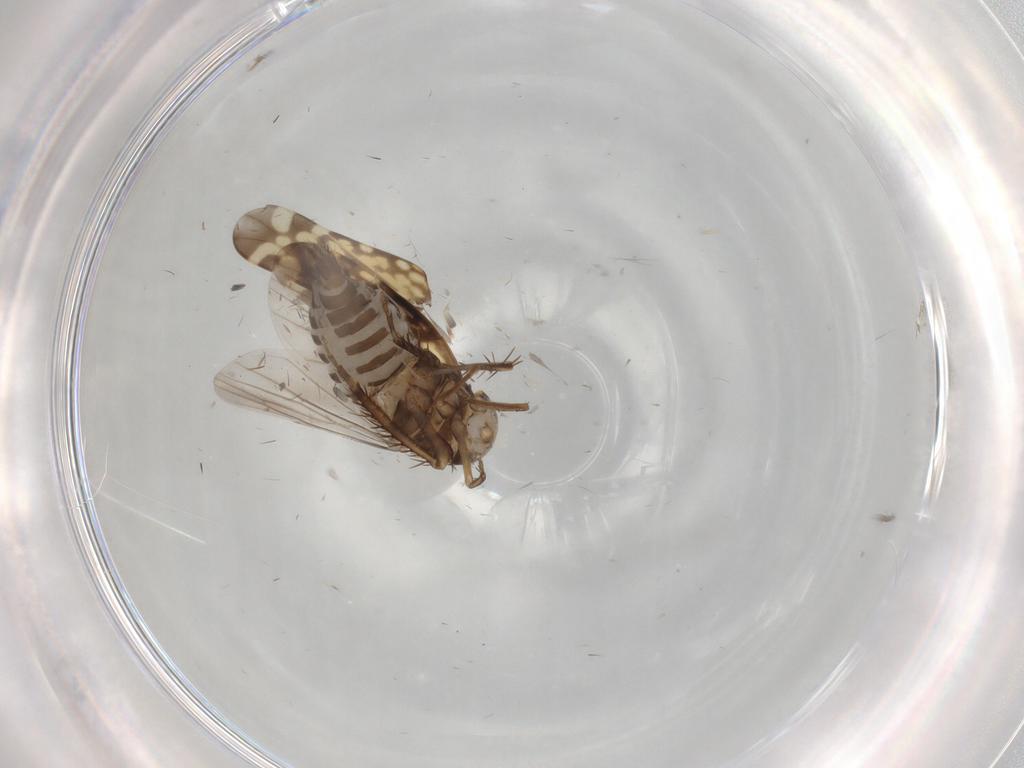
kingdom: Animalia
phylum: Arthropoda
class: Insecta
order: Hemiptera
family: Cicadellidae
